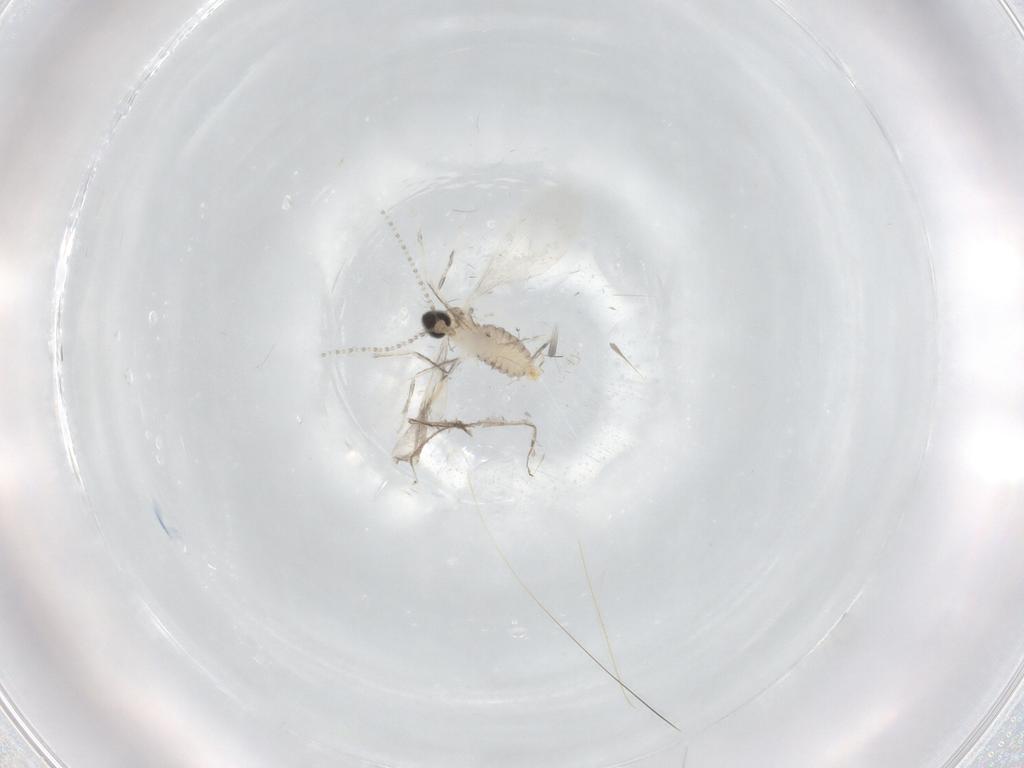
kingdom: Animalia
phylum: Arthropoda
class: Insecta
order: Diptera
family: Cecidomyiidae
